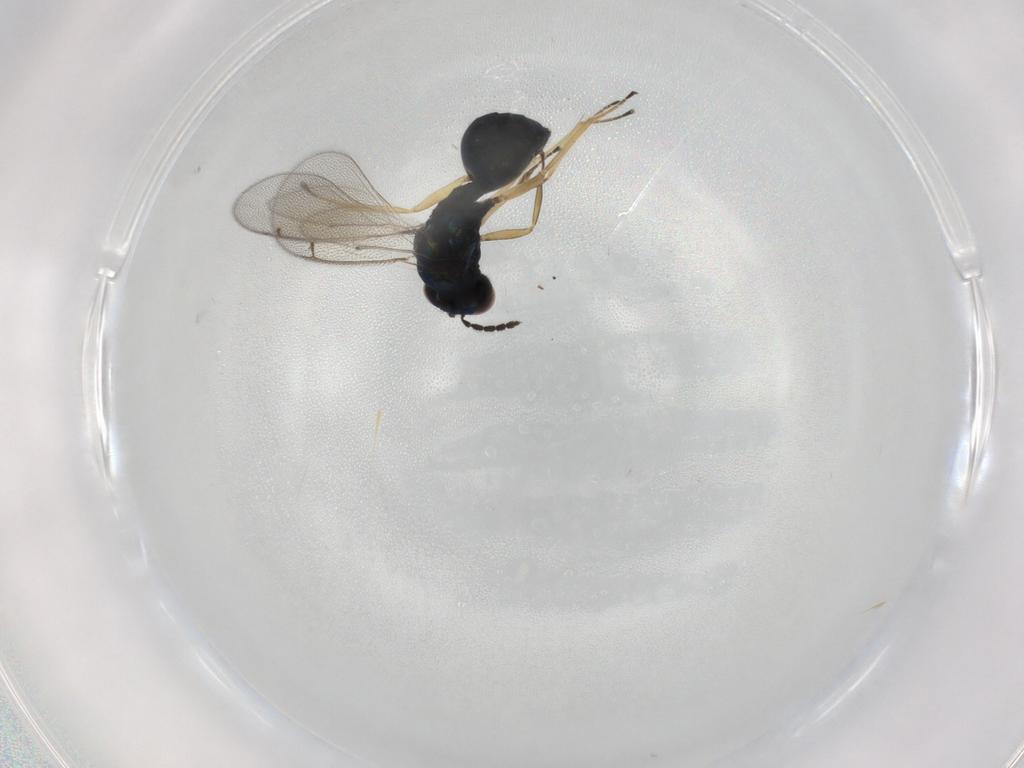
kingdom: Animalia
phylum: Arthropoda
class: Insecta
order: Hymenoptera
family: Eulophidae
